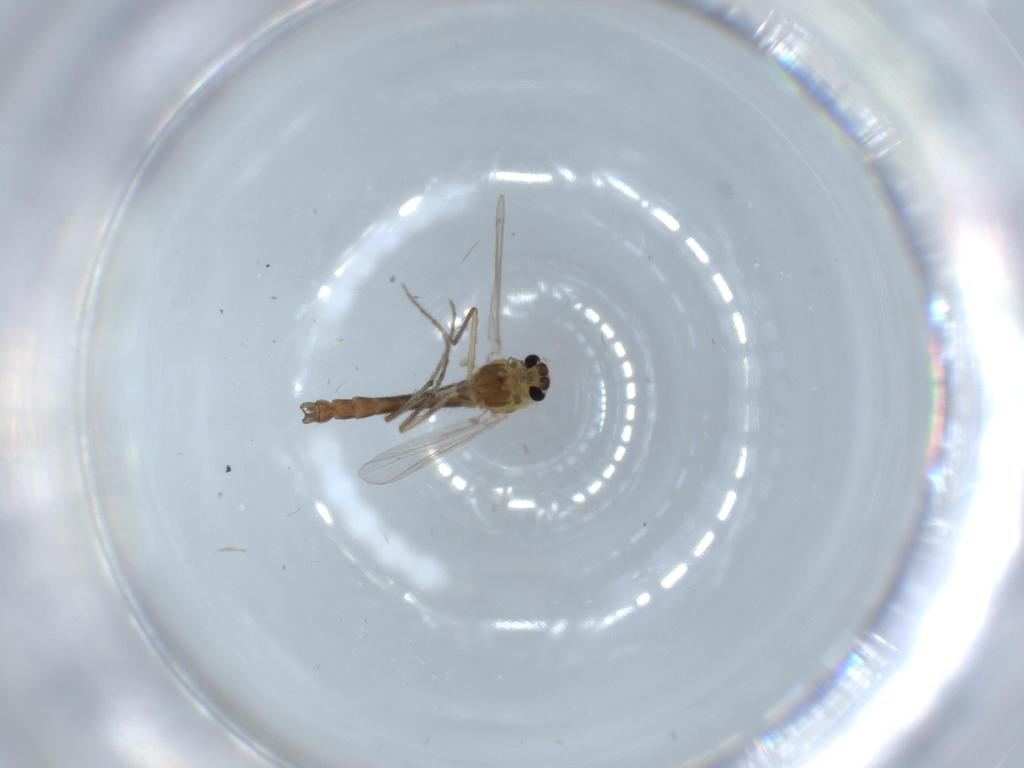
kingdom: Animalia
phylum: Arthropoda
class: Insecta
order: Diptera
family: Chironomidae
